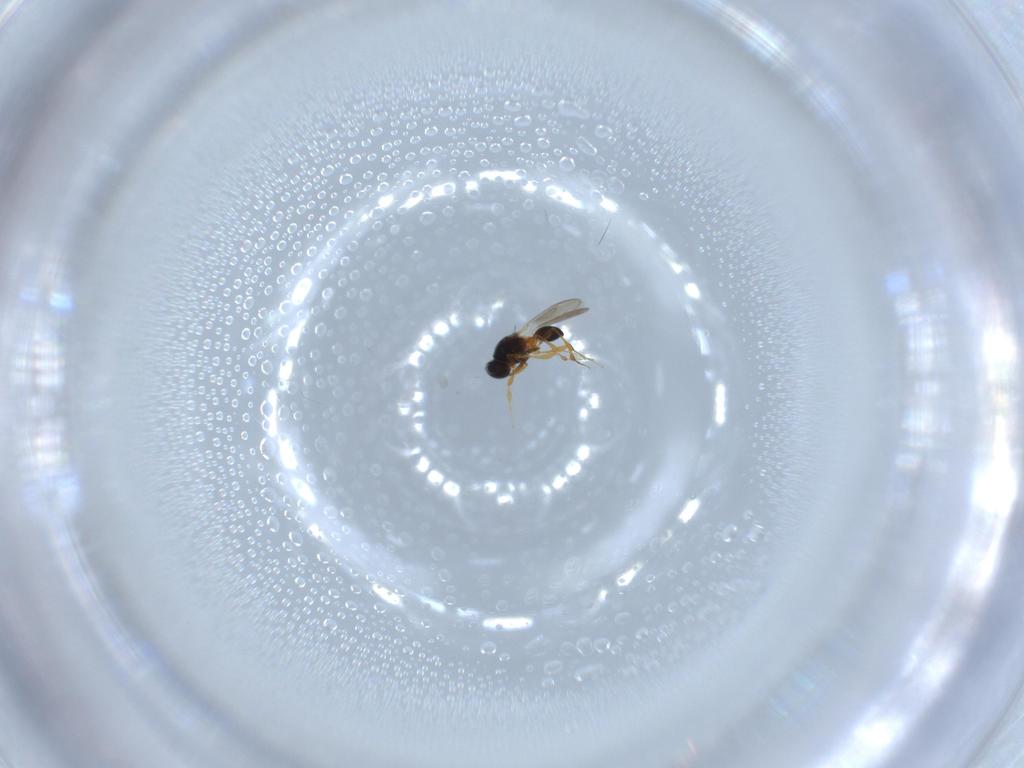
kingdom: Animalia
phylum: Arthropoda
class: Insecta
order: Hymenoptera
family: Platygastridae
